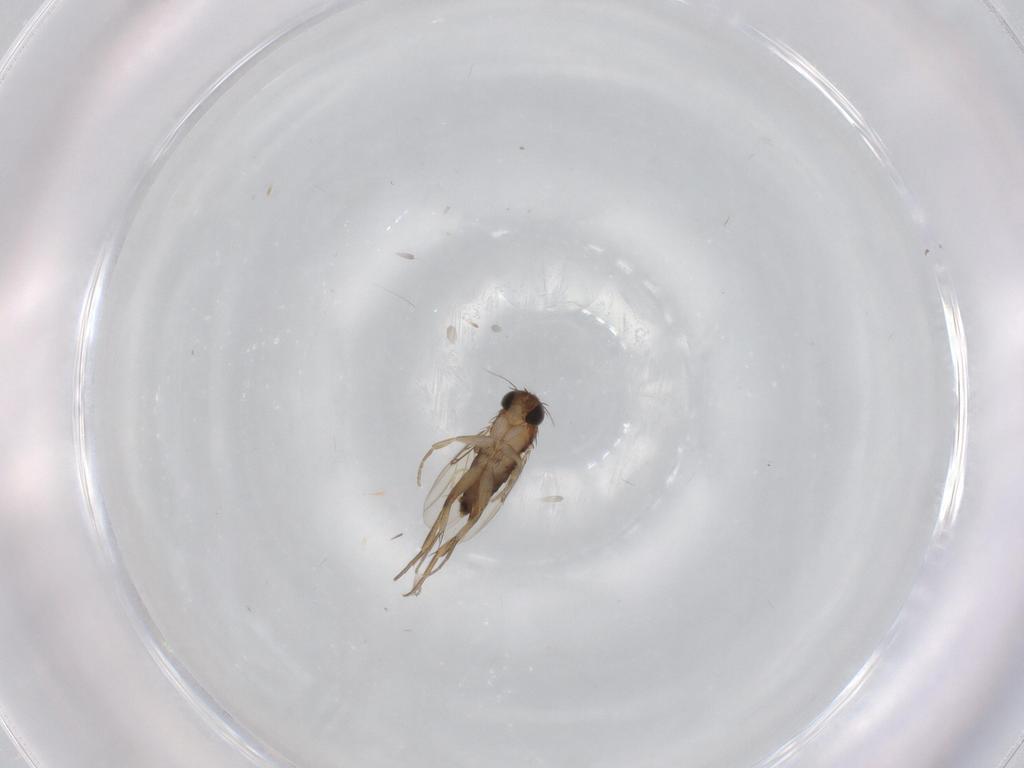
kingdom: Animalia
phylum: Arthropoda
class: Insecta
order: Diptera
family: Phoridae
